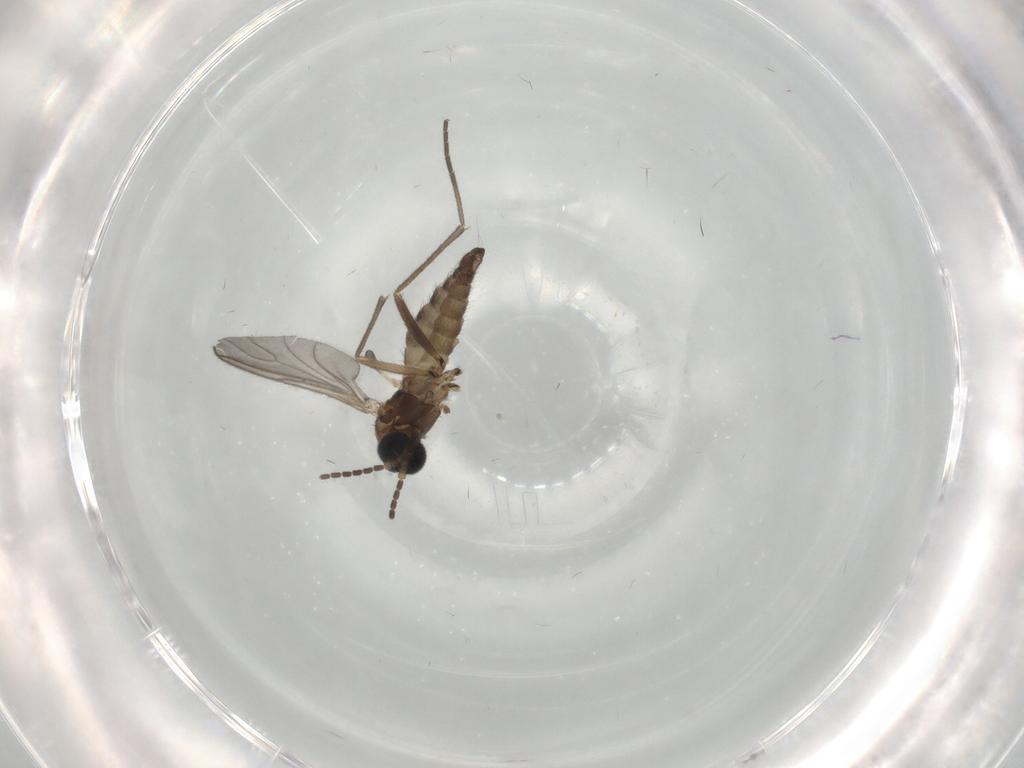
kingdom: Animalia
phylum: Arthropoda
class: Insecta
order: Diptera
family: Sciaridae
